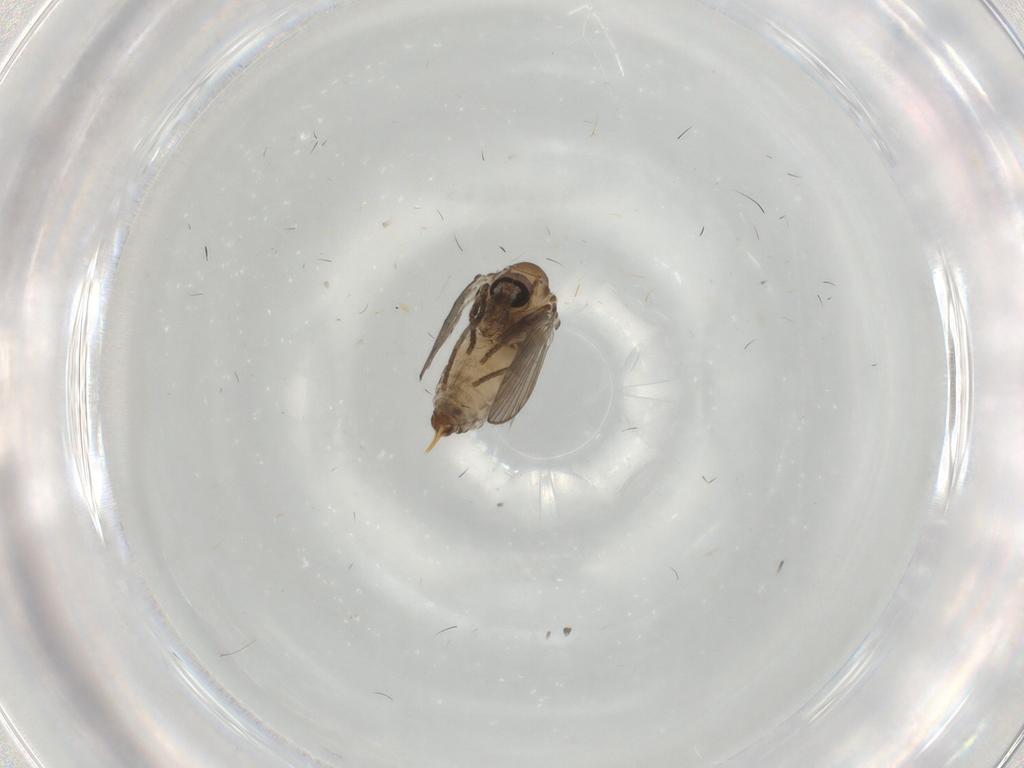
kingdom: Animalia
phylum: Arthropoda
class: Insecta
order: Diptera
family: Psychodidae
